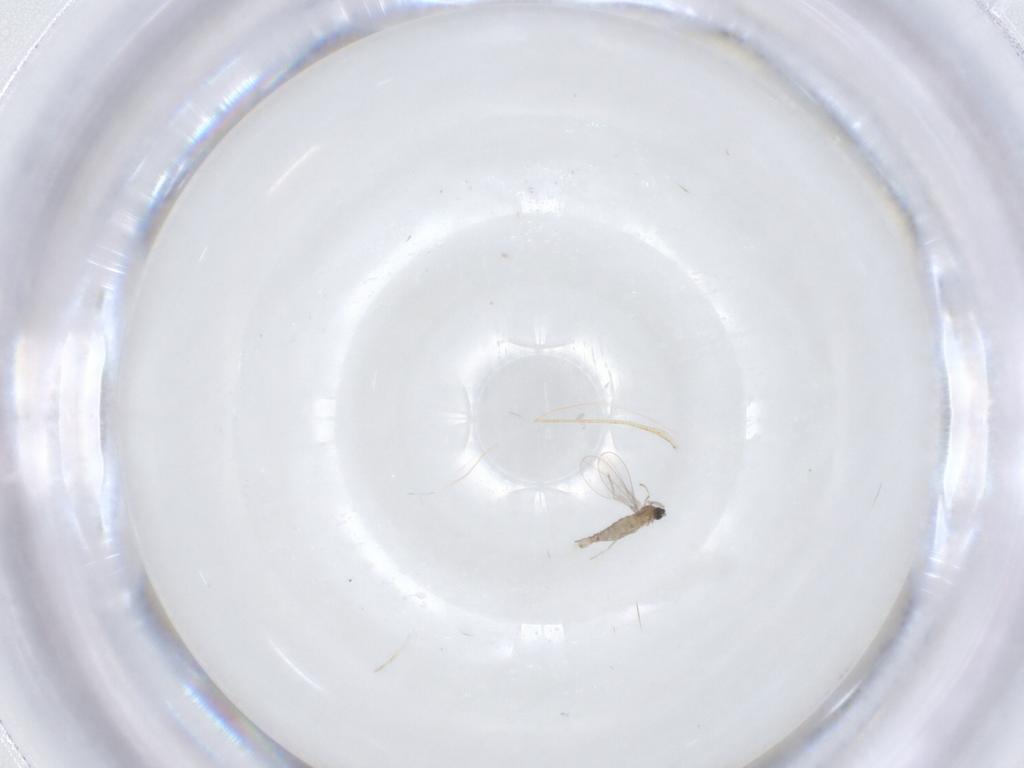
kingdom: Animalia
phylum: Arthropoda
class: Insecta
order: Diptera
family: Cecidomyiidae
